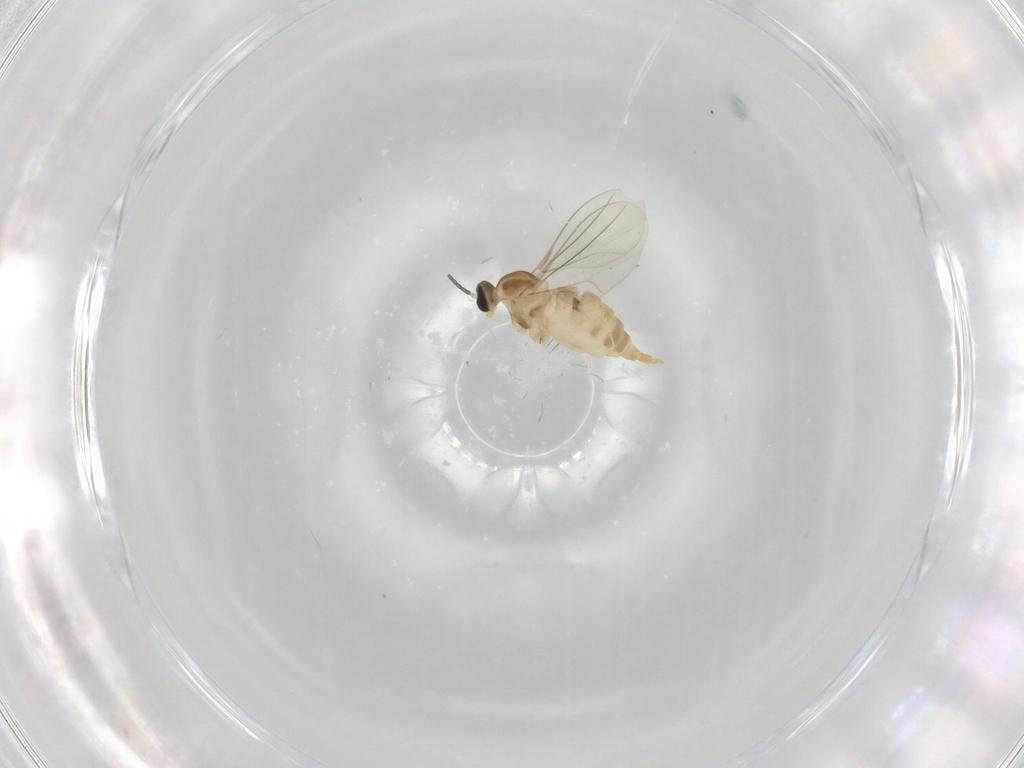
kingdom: Animalia
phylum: Arthropoda
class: Insecta
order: Diptera
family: Cecidomyiidae
